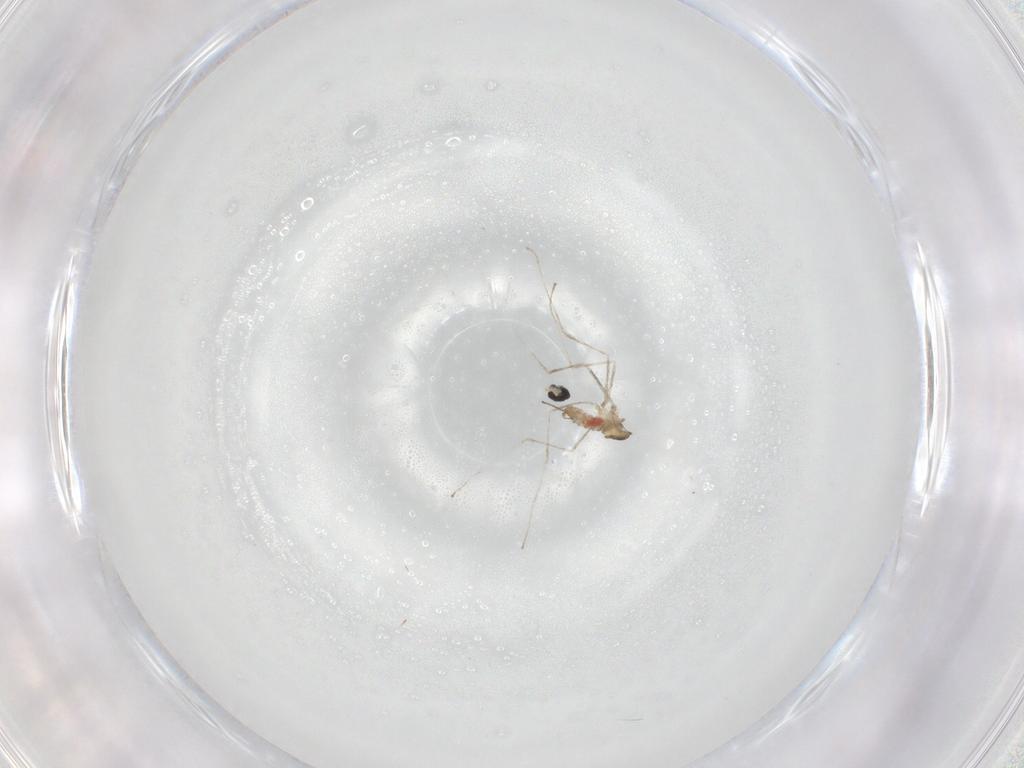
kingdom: Animalia
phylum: Arthropoda
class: Insecta
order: Diptera
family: Cecidomyiidae
